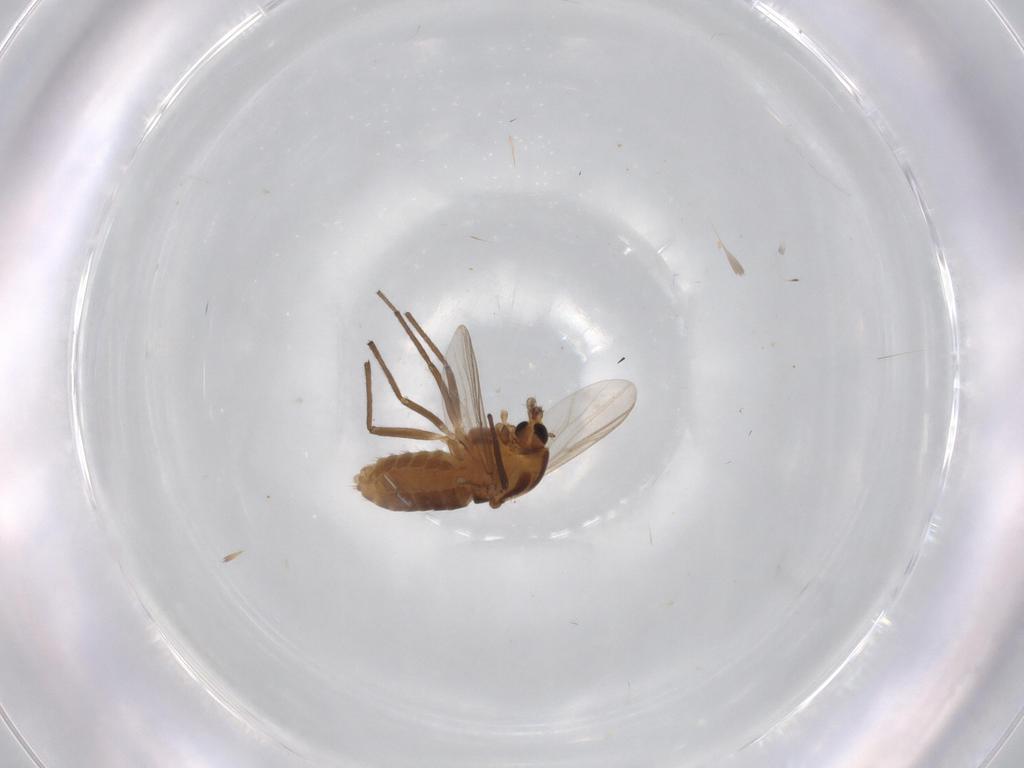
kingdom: Animalia
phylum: Arthropoda
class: Insecta
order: Diptera
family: Chironomidae
